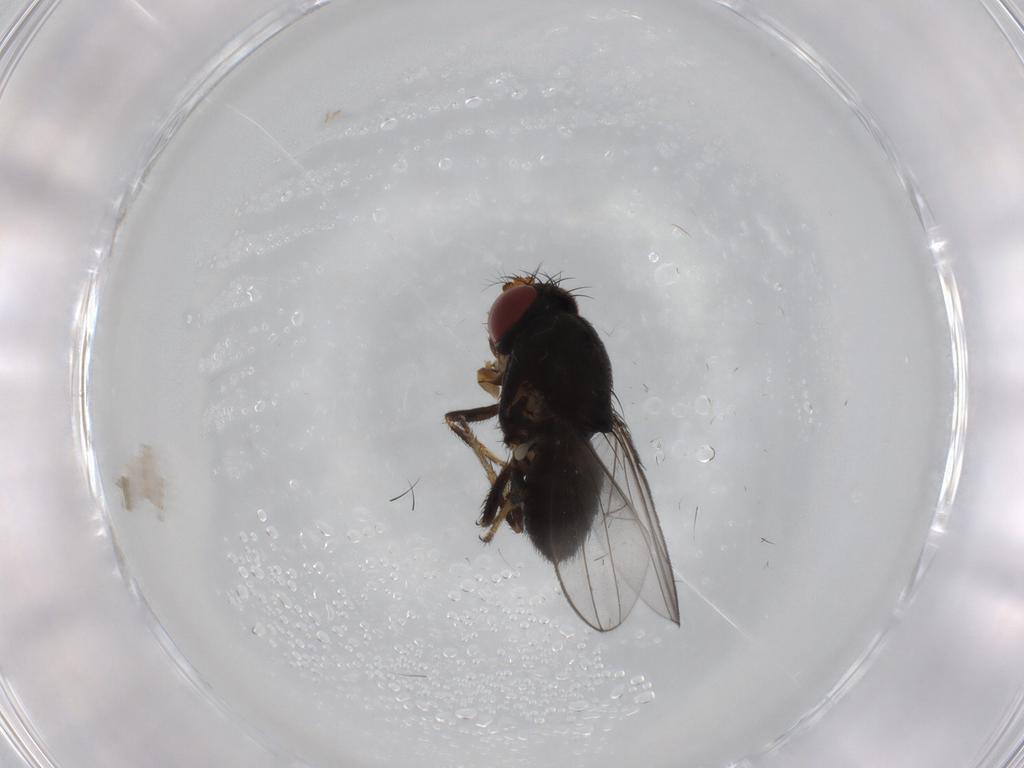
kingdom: Animalia
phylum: Arthropoda
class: Insecta
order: Diptera
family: Ephydridae
